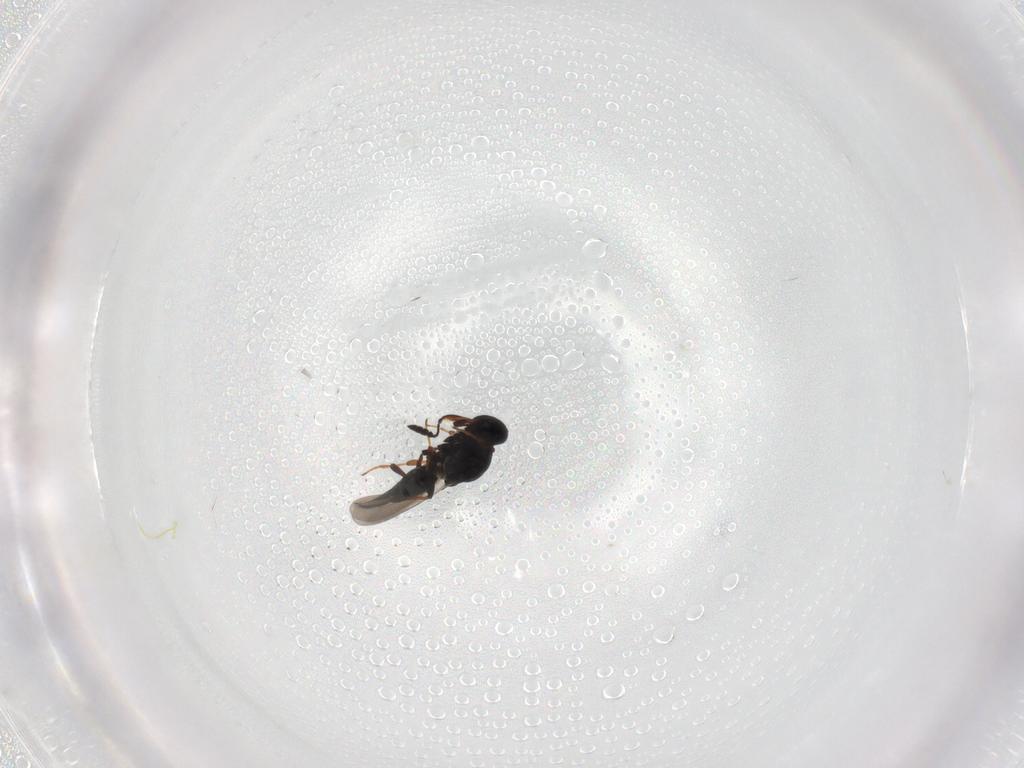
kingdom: Animalia
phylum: Arthropoda
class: Insecta
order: Hymenoptera
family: Platygastridae
